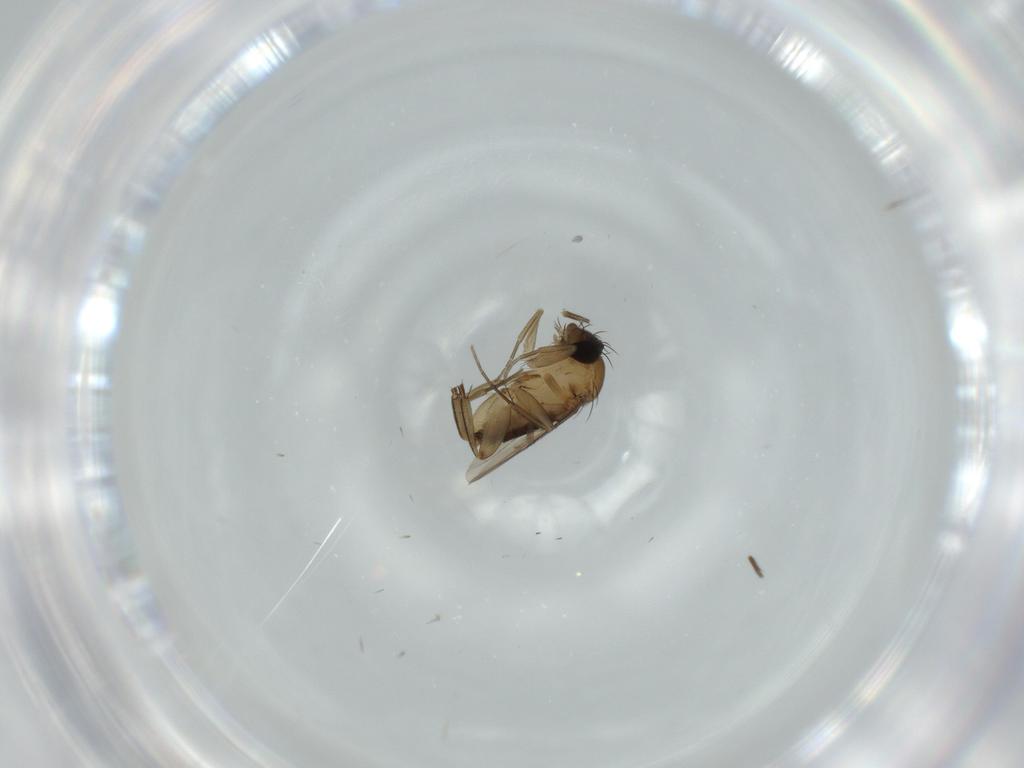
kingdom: Animalia
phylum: Arthropoda
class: Insecta
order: Diptera
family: Phoridae
